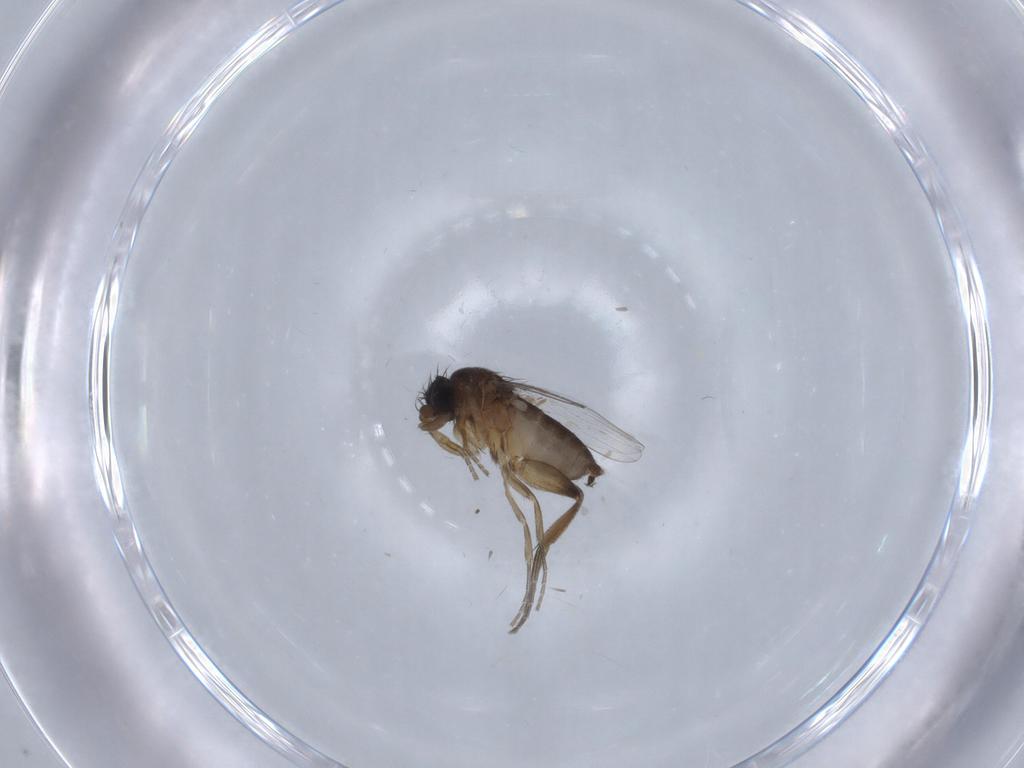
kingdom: Animalia
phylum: Arthropoda
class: Insecta
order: Diptera
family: Phoridae
